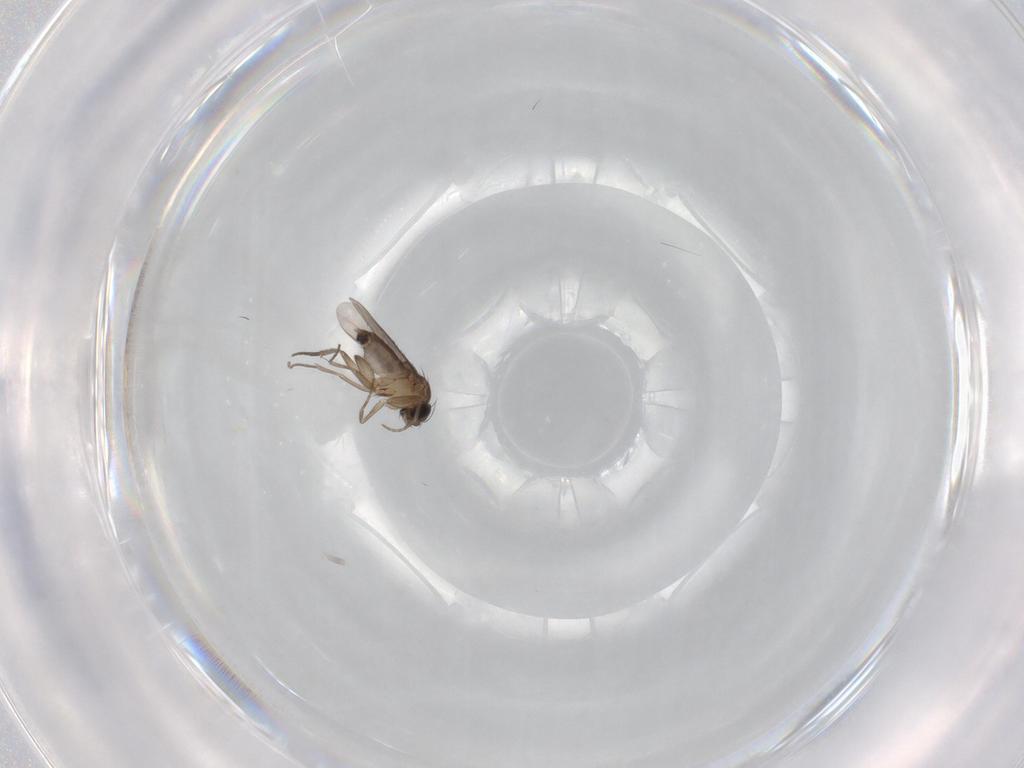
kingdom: Animalia
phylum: Arthropoda
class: Insecta
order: Diptera
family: Phoridae
